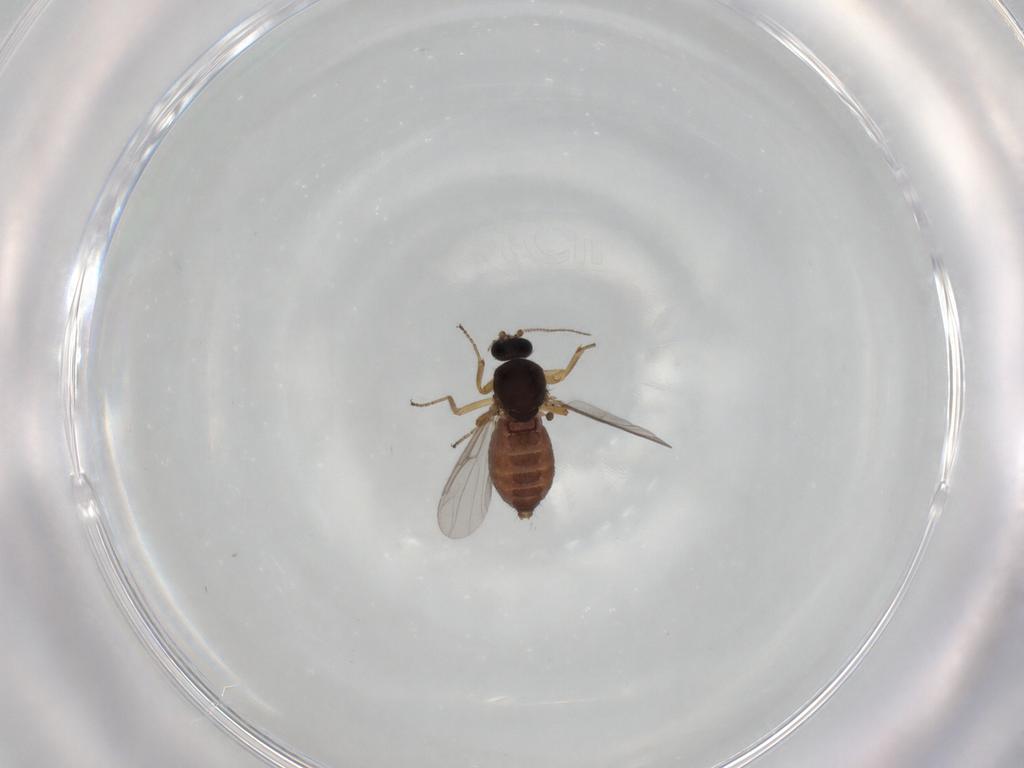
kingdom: Animalia
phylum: Arthropoda
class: Insecta
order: Diptera
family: Ceratopogonidae
